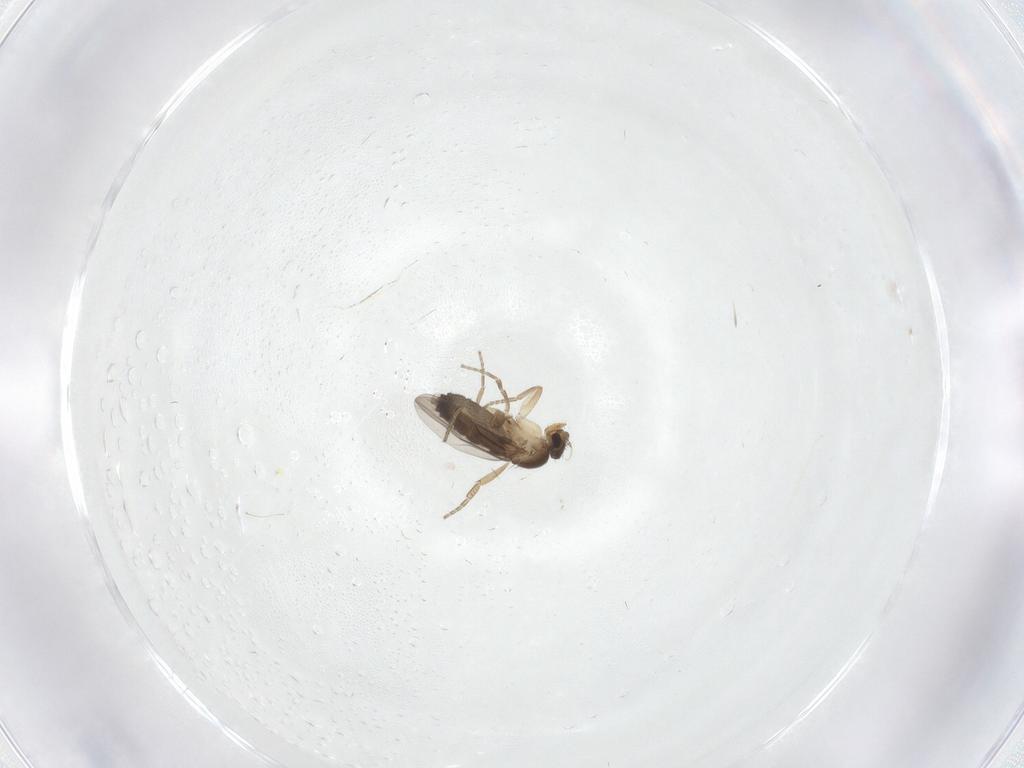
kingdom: Animalia
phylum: Arthropoda
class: Insecta
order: Diptera
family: Phoridae
